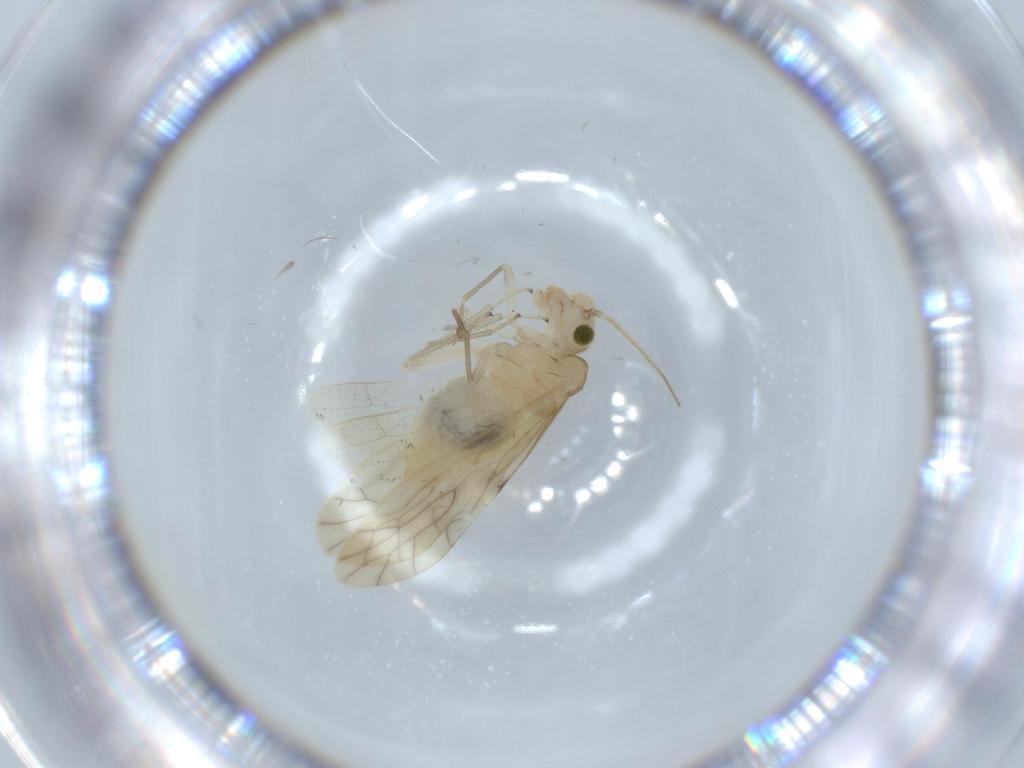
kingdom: Animalia
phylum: Arthropoda
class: Insecta
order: Psocodea
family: Caeciliusidae
